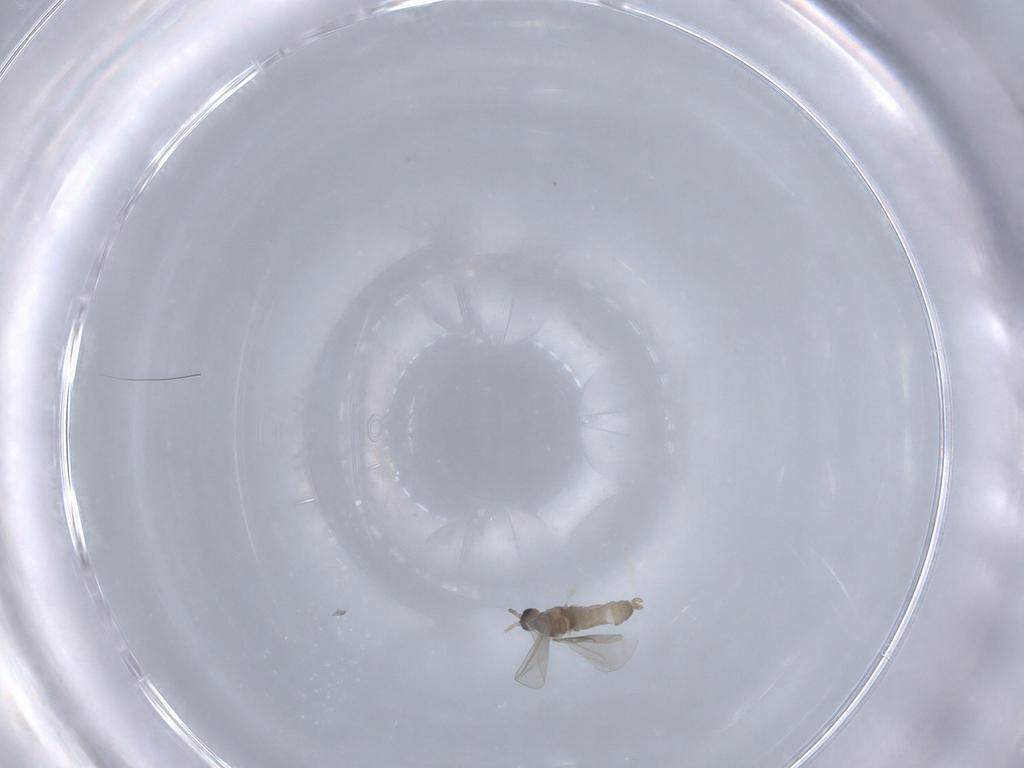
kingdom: Animalia
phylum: Arthropoda
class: Insecta
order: Diptera
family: Cecidomyiidae
